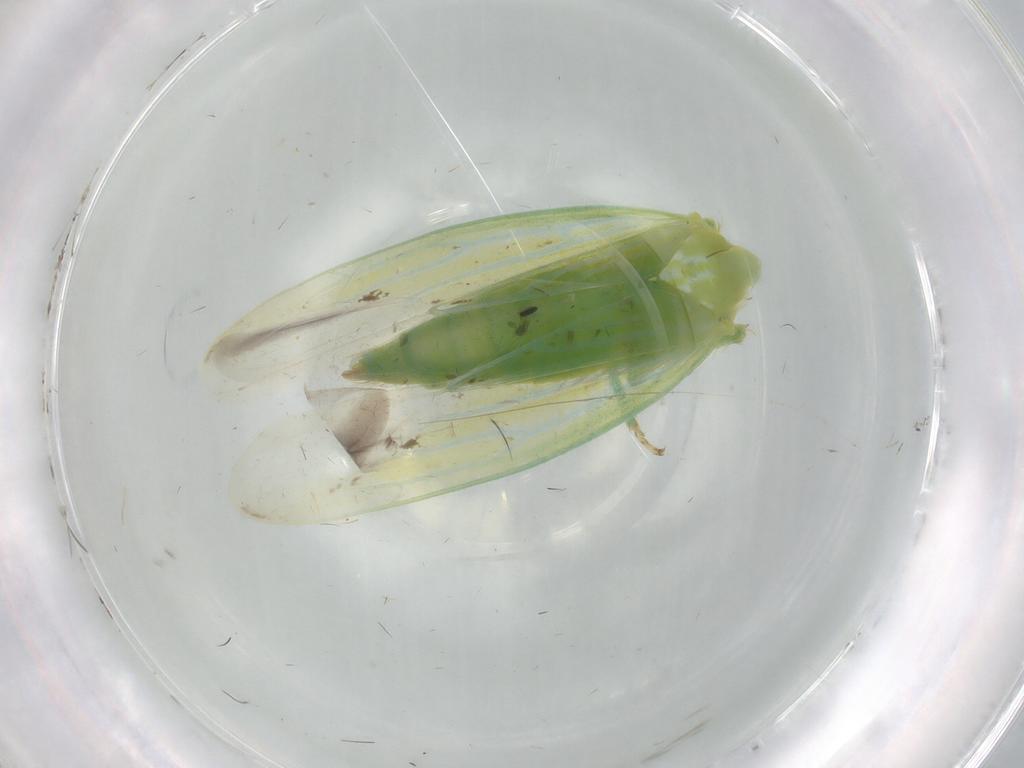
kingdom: Animalia
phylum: Arthropoda
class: Insecta
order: Hemiptera
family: Cicadellidae
